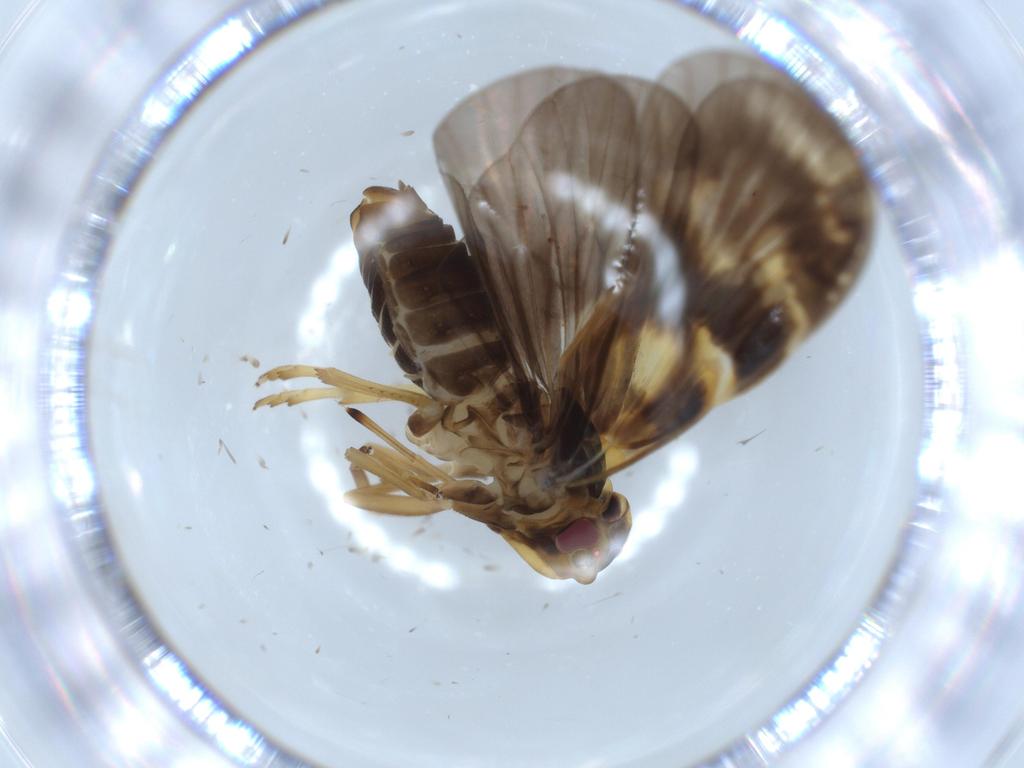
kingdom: Animalia
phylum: Arthropoda
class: Insecta
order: Hemiptera
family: Cixiidae
